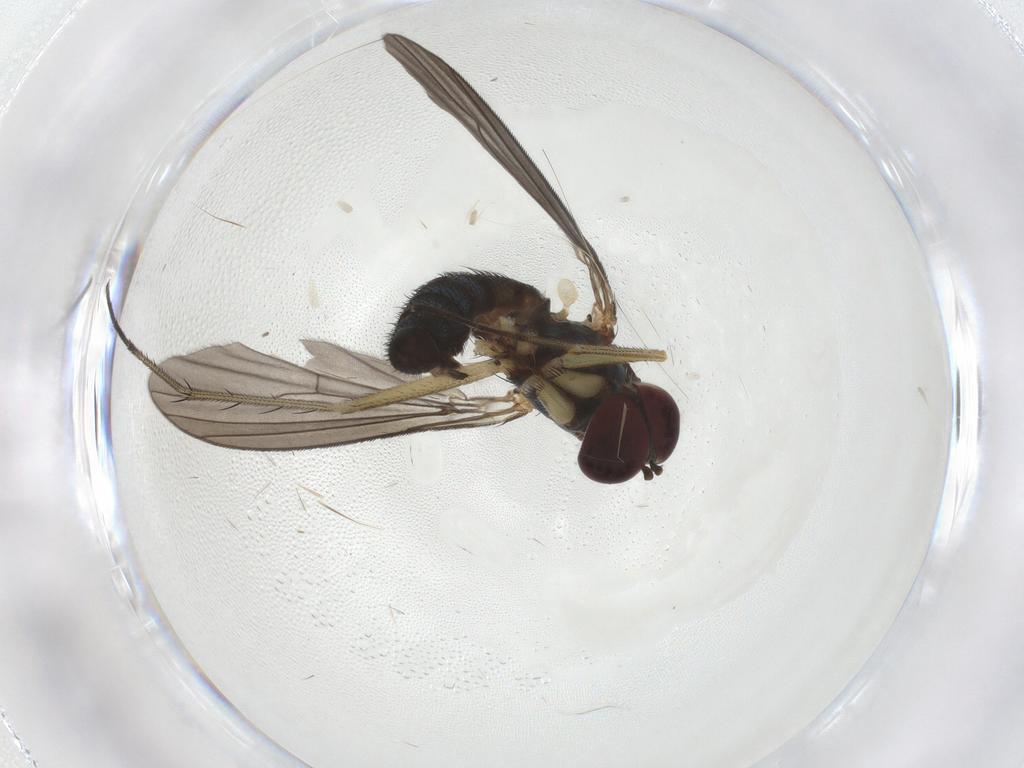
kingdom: Animalia
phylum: Arthropoda
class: Insecta
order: Diptera
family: Dolichopodidae
